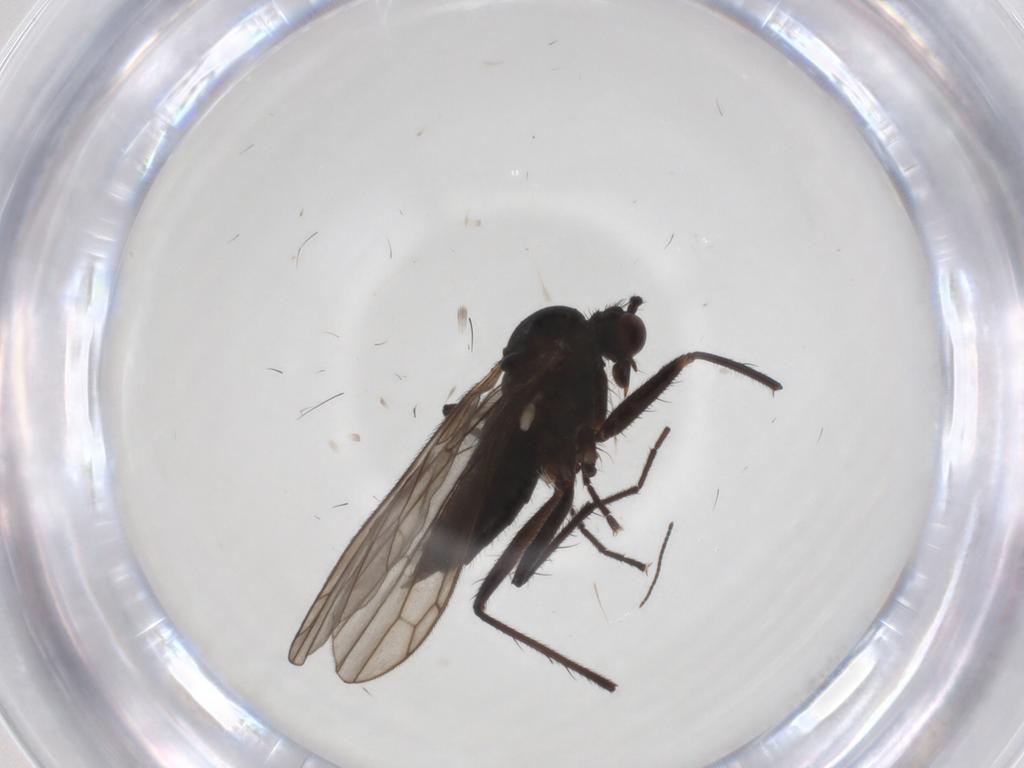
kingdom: Animalia
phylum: Arthropoda
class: Insecta
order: Diptera
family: Empididae
